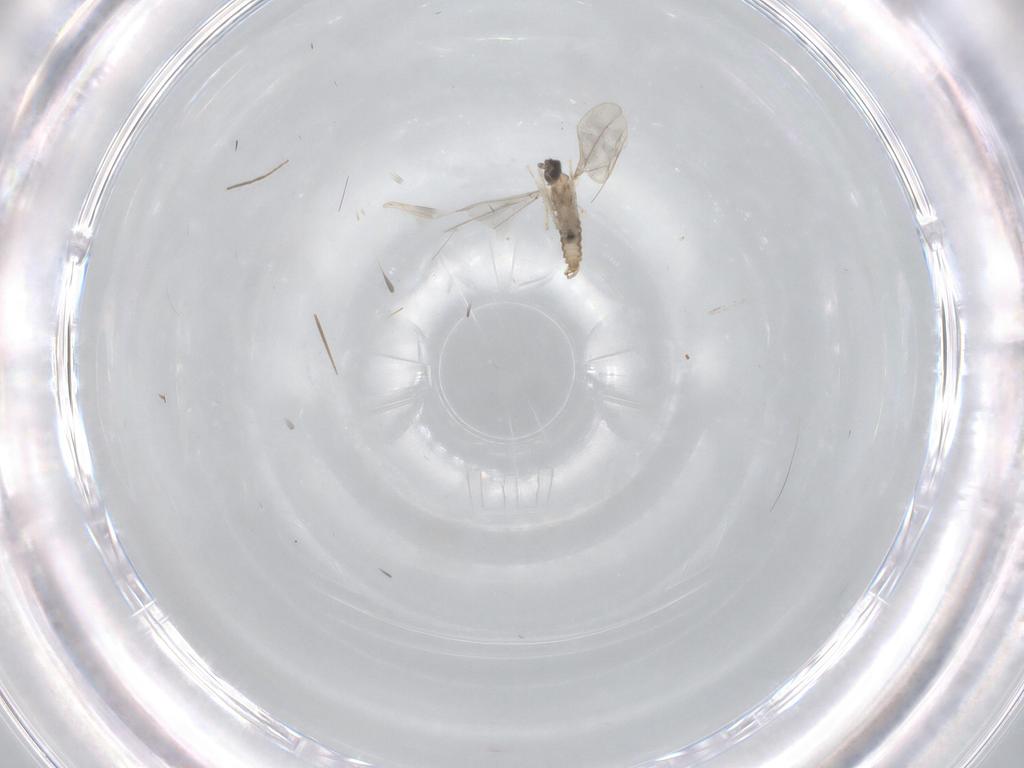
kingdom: Animalia
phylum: Arthropoda
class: Insecta
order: Diptera
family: Cecidomyiidae
